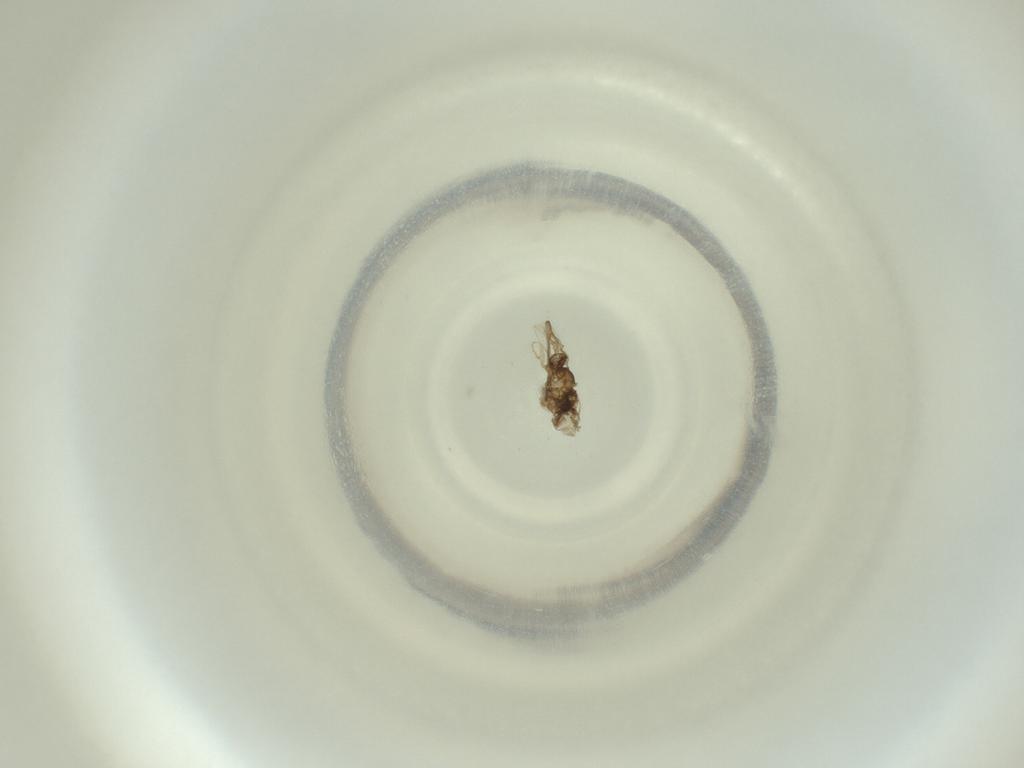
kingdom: Animalia
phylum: Arthropoda
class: Insecta
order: Diptera
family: Cecidomyiidae
